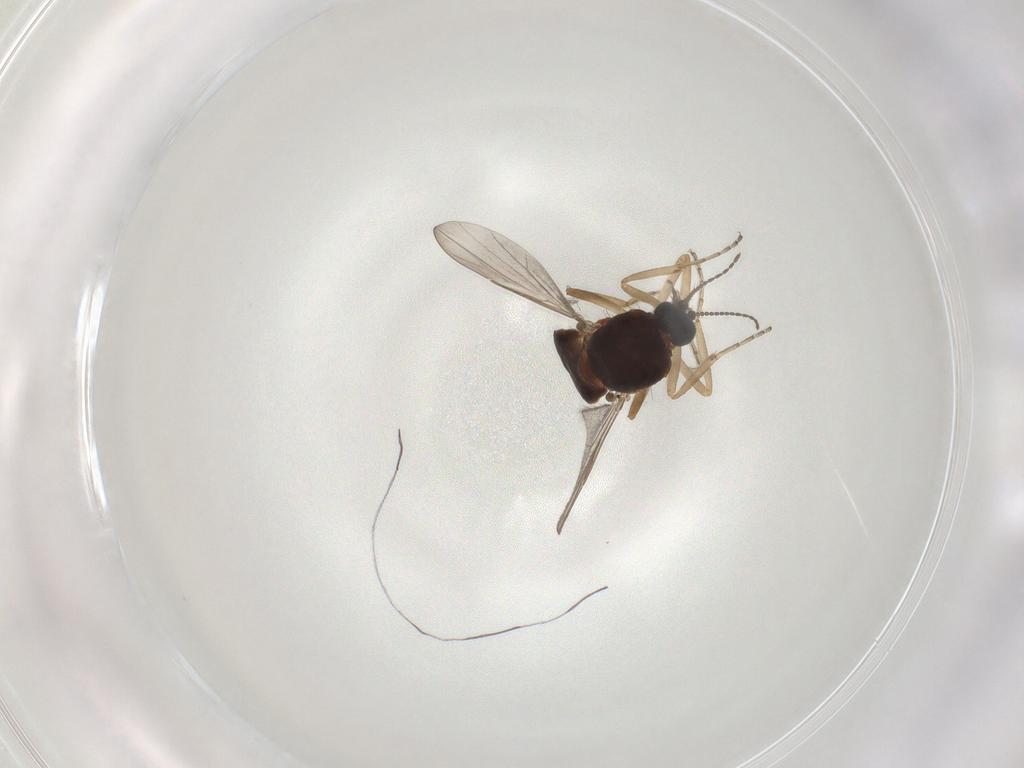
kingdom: Animalia
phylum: Arthropoda
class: Insecta
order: Diptera
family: Ceratopogonidae
